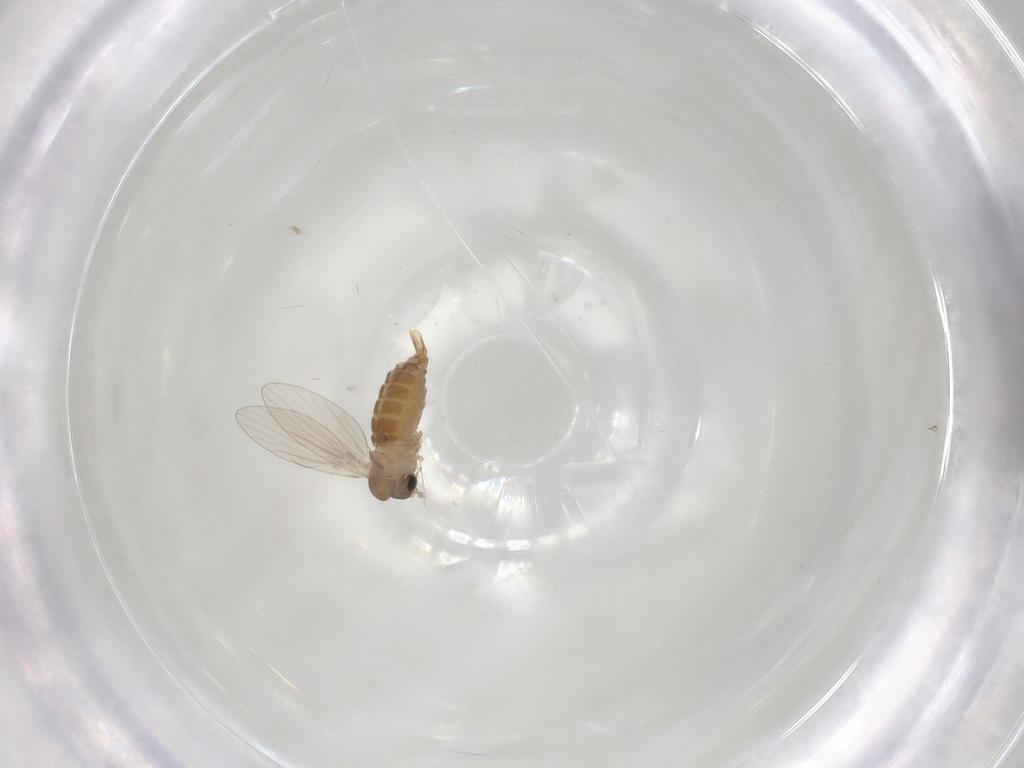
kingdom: Animalia
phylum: Arthropoda
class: Insecta
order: Diptera
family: Psychodidae
